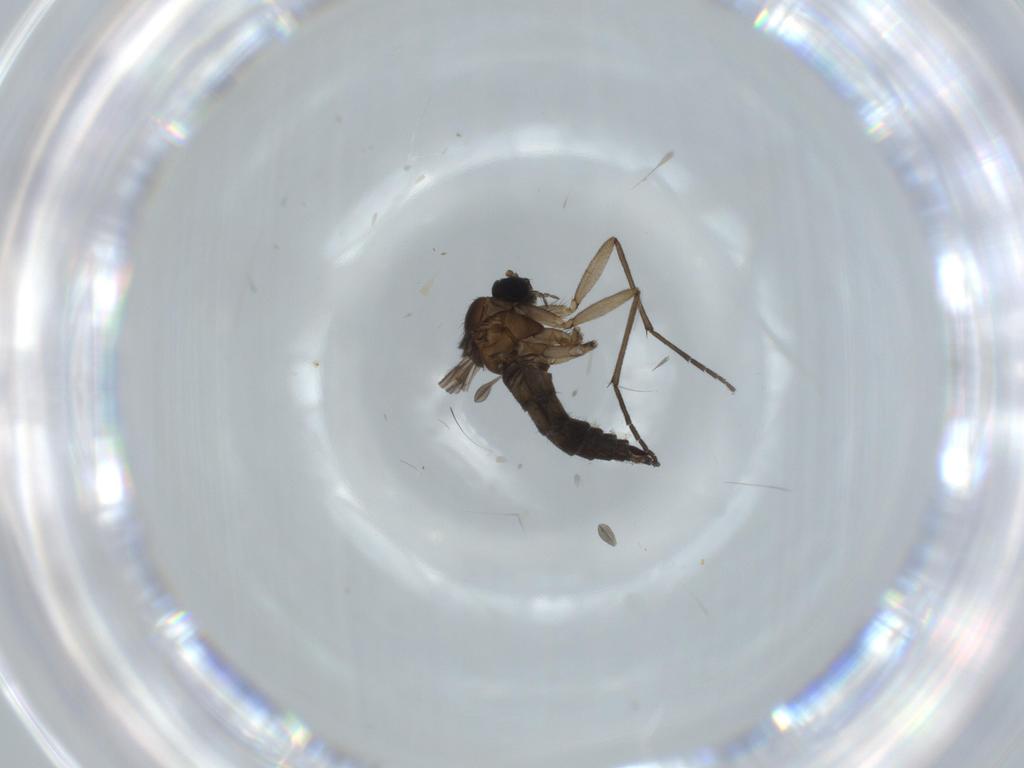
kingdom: Animalia
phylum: Arthropoda
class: Insecta
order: Diptera
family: Sciaridae
